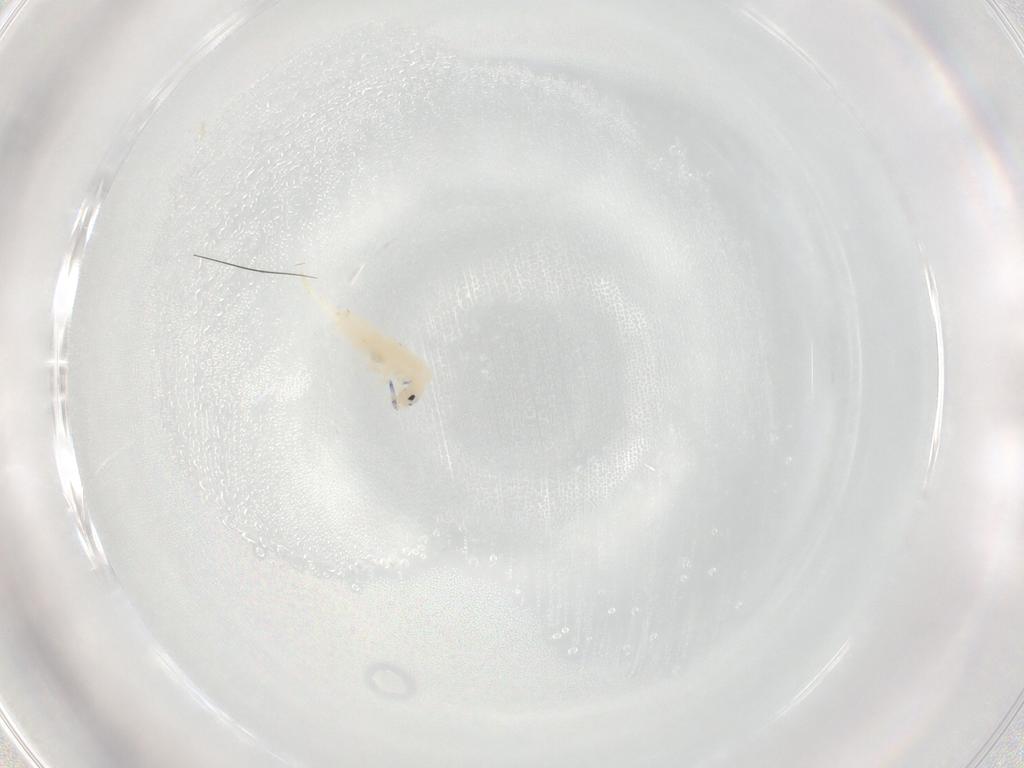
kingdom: Animalia
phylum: Arthropoda
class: Collembola
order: Entomobryomorpha
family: Entomobryidae
